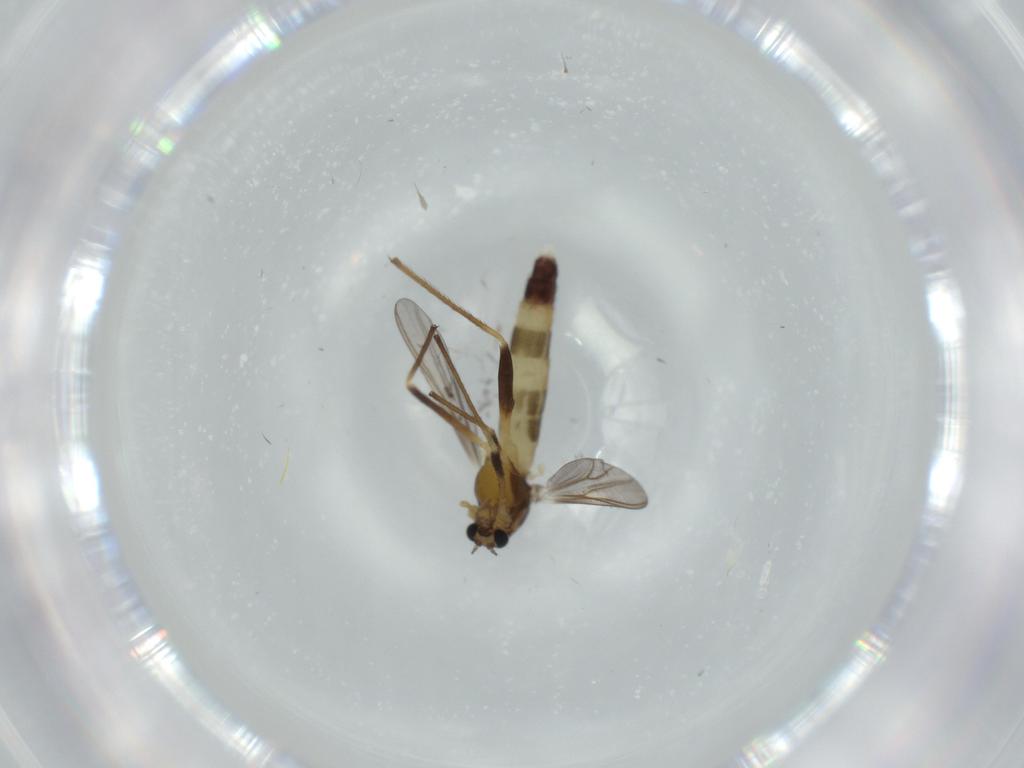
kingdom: Animalia
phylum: Arthropoda
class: Insecta
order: Diptera
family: Chironomidae
